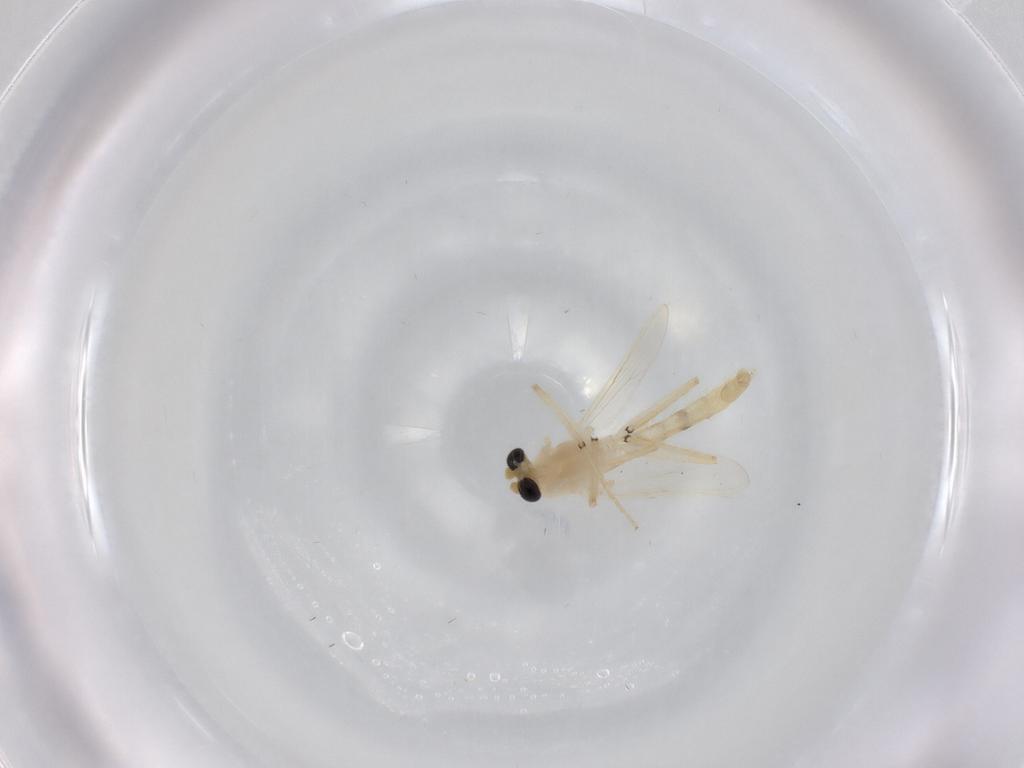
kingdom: Animalia
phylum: Arthropoda
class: Insecta
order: Diptera
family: Chironomidae
